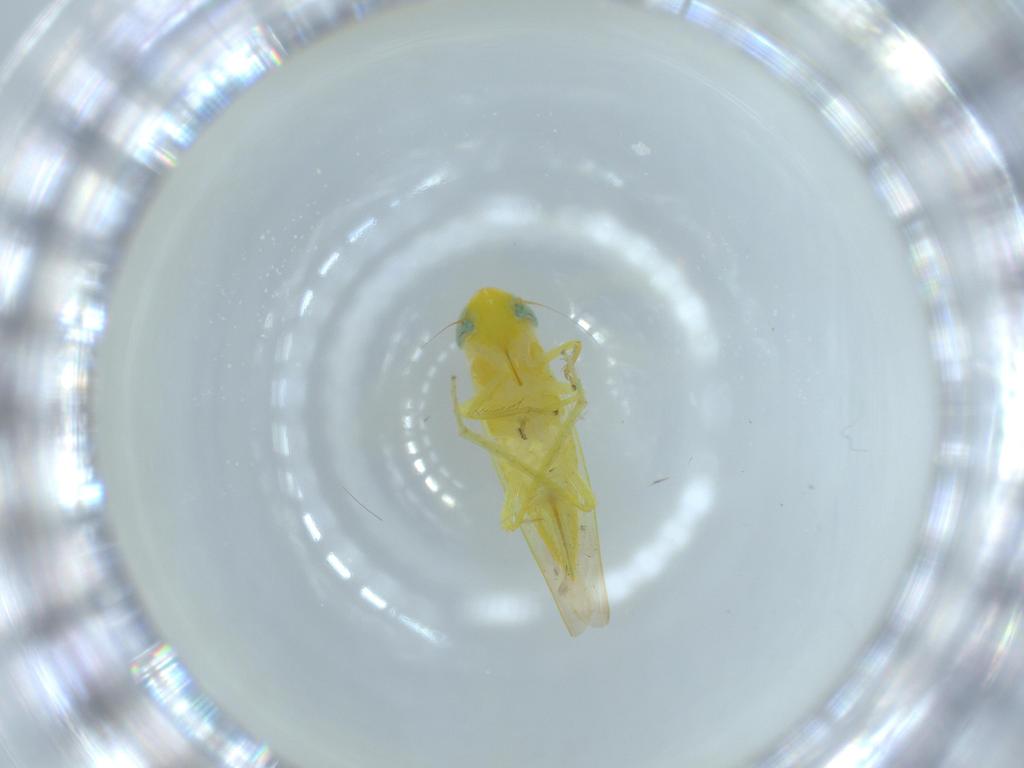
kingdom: Animalia
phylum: Arthropoda
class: Insecta
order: Hemiptera
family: Cicadellidae
